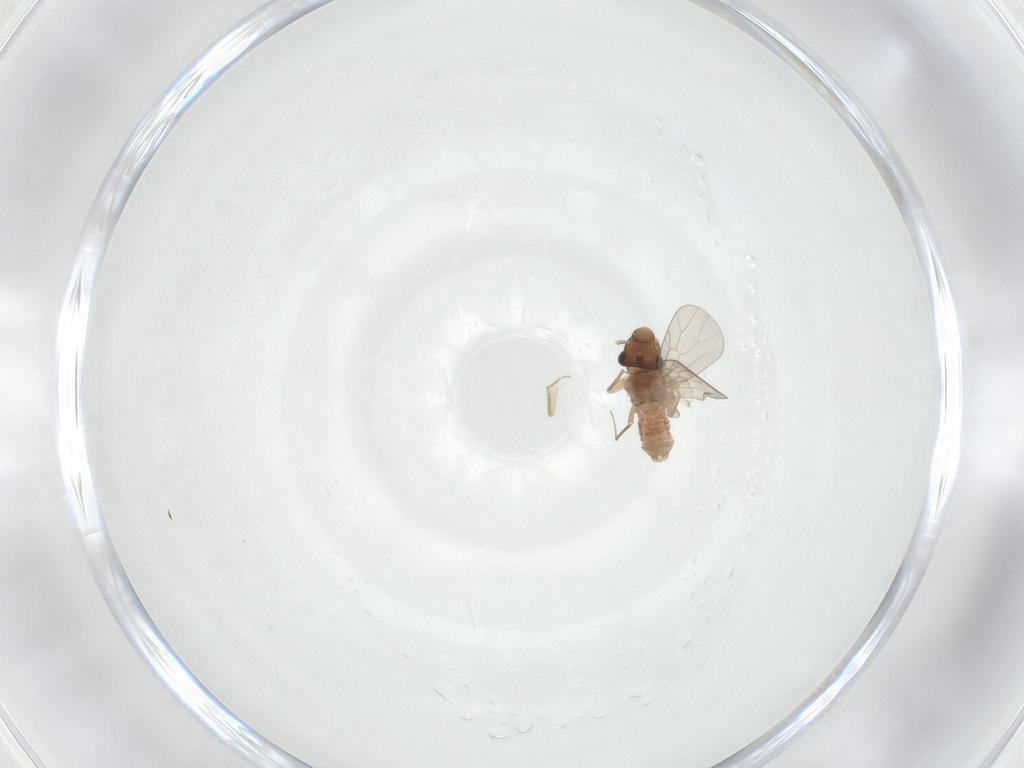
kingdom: Animalia
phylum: Arthropoda
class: Insecta
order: Psocodea
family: Lepidopsocidae
